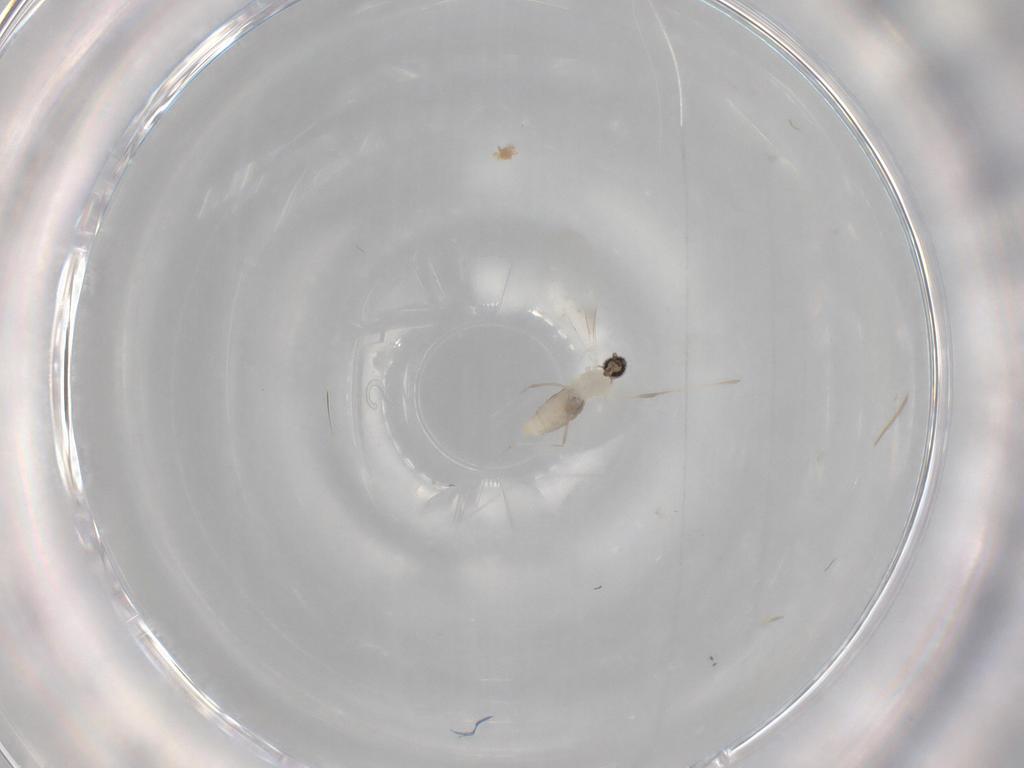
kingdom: Animalia
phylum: Arthropoda
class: Insecta
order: Diptera
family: Cecidomyiidae
